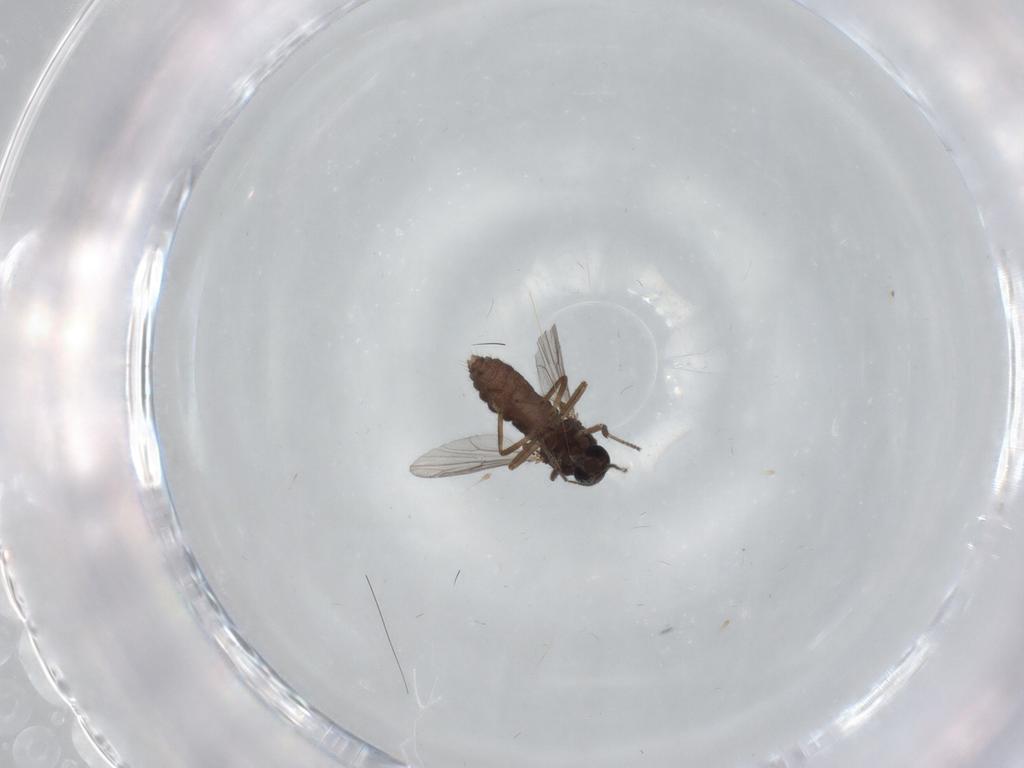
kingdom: Animalia
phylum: Arthropoda
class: Insecta
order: Diptera
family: Ceratopogonidae
